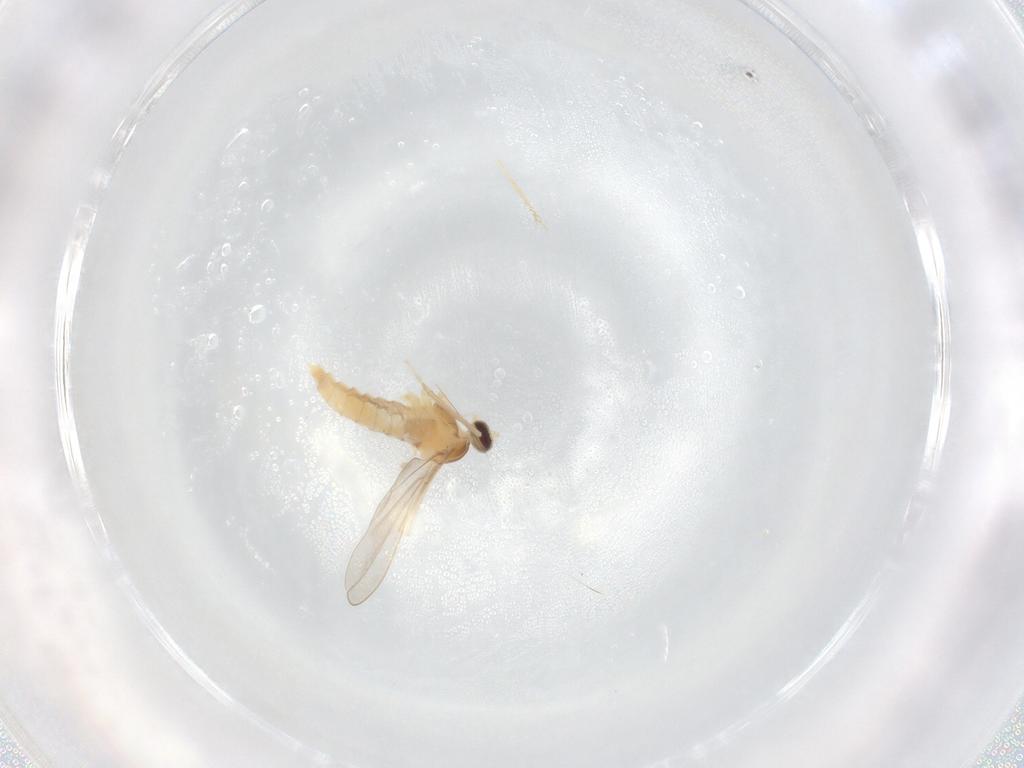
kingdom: Animalia
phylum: Arthropoda
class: Insecta
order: Diptera
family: Cecidomyiidae
